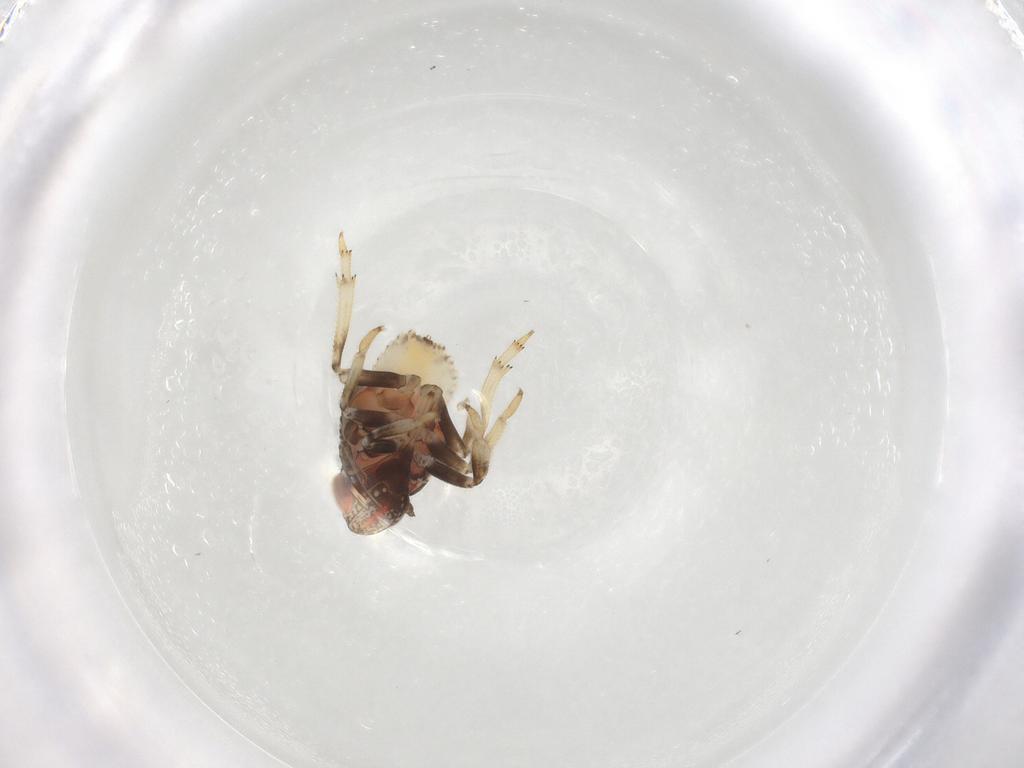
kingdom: Animalia
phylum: Arthropoda
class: Insecta
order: Hemiptera
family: Issidae
